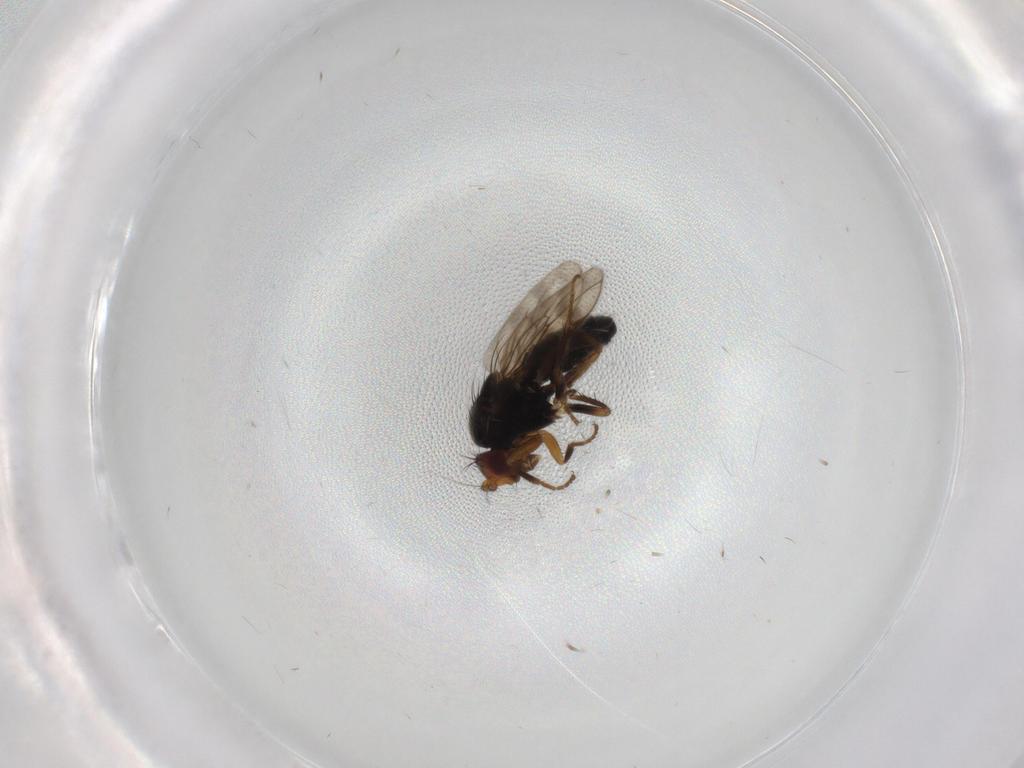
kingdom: Animalia
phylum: Arthropoda
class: Insecta
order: Diptera
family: Sphaeroceridae
